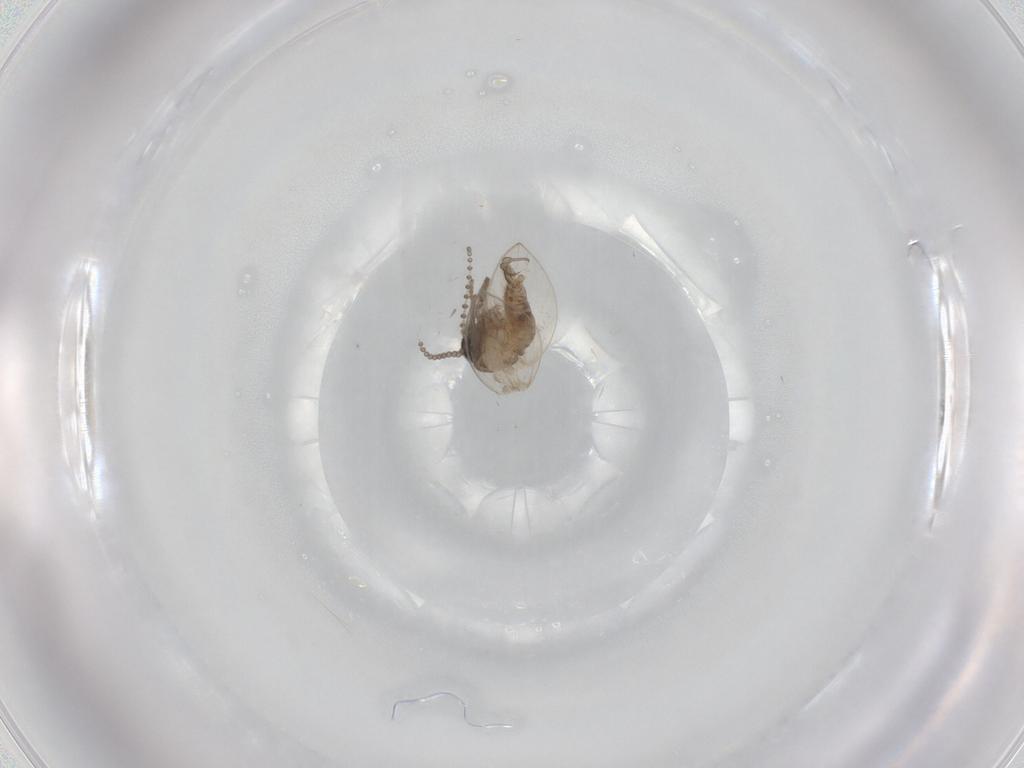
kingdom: Animalia
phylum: Arthropoda
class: Insecta
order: Diptera
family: Psychodidae
